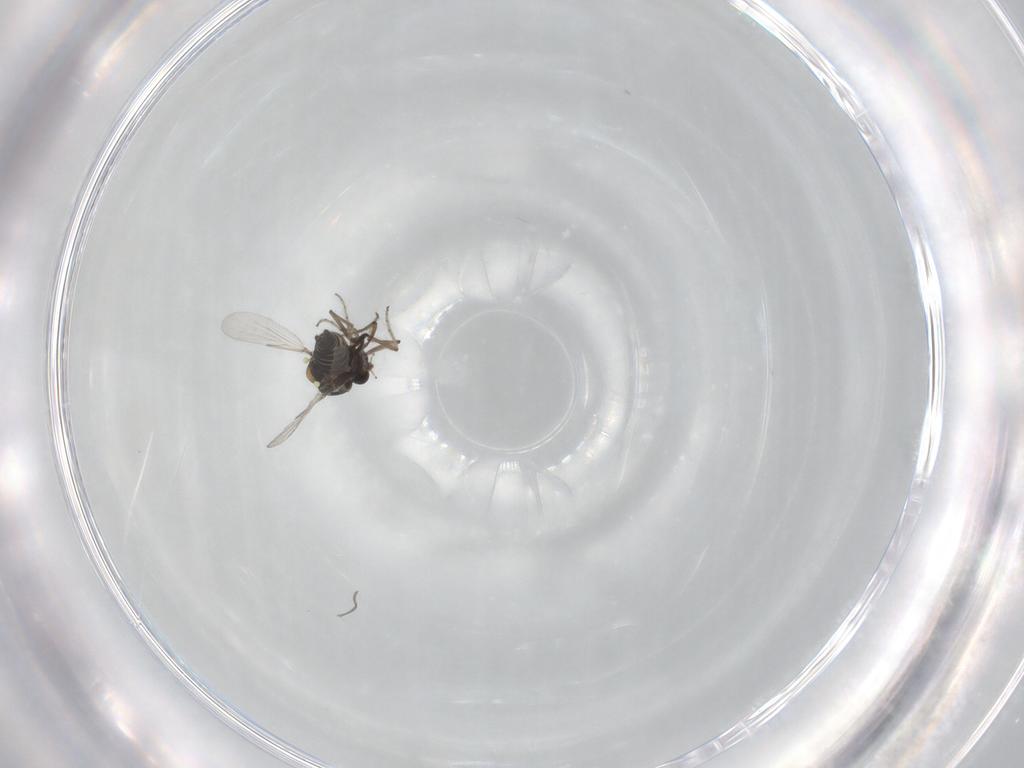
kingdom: Animalia
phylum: Arthropoda
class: Insecta
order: Diptera
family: Ceratopogonidae
